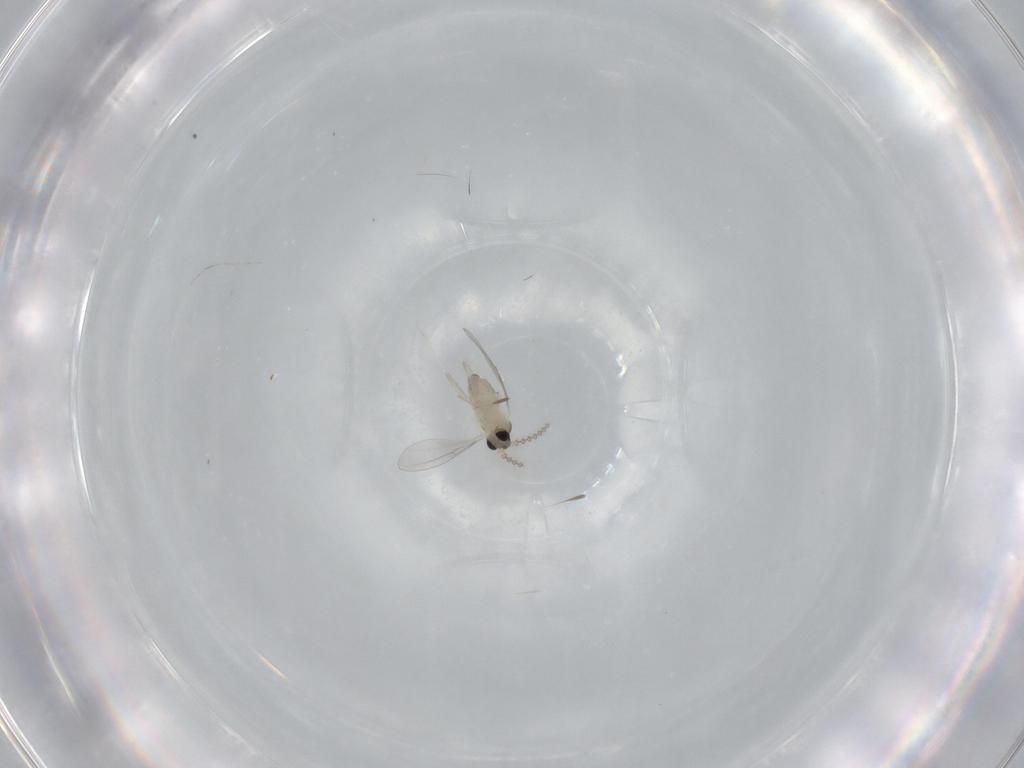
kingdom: Animalia
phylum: Arthropoda
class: Insecta
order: Diptera
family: Cecidomyiidae
